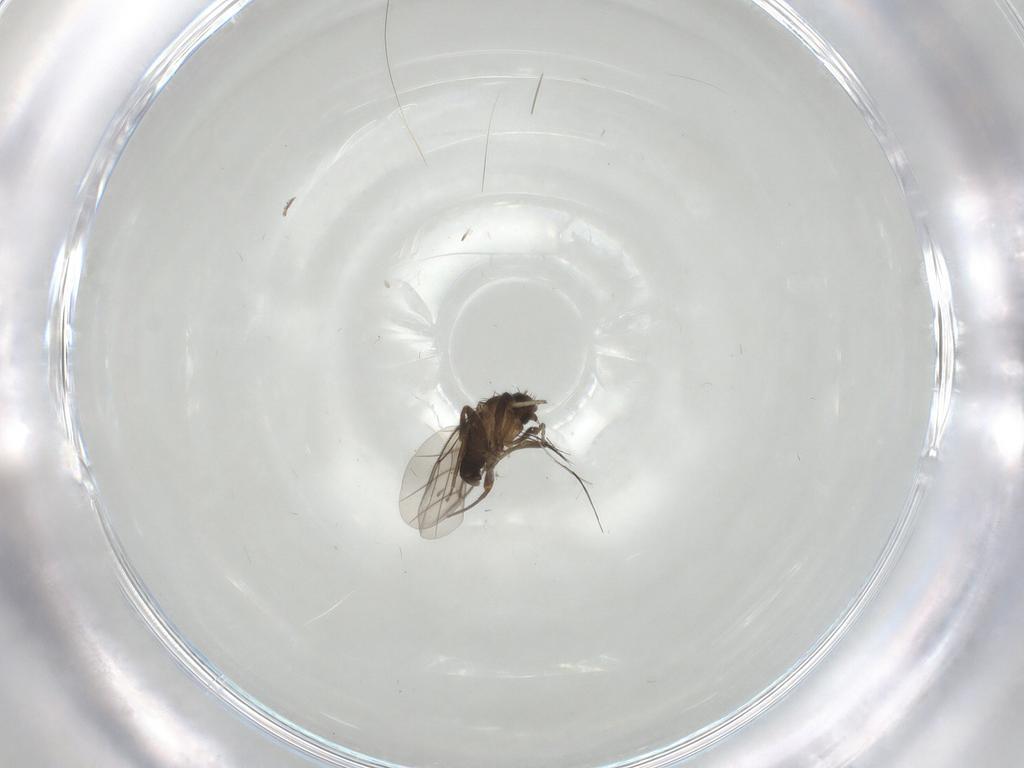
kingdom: Animalia
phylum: Arthropoda
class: Insecta
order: Diptera
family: Phoridae
